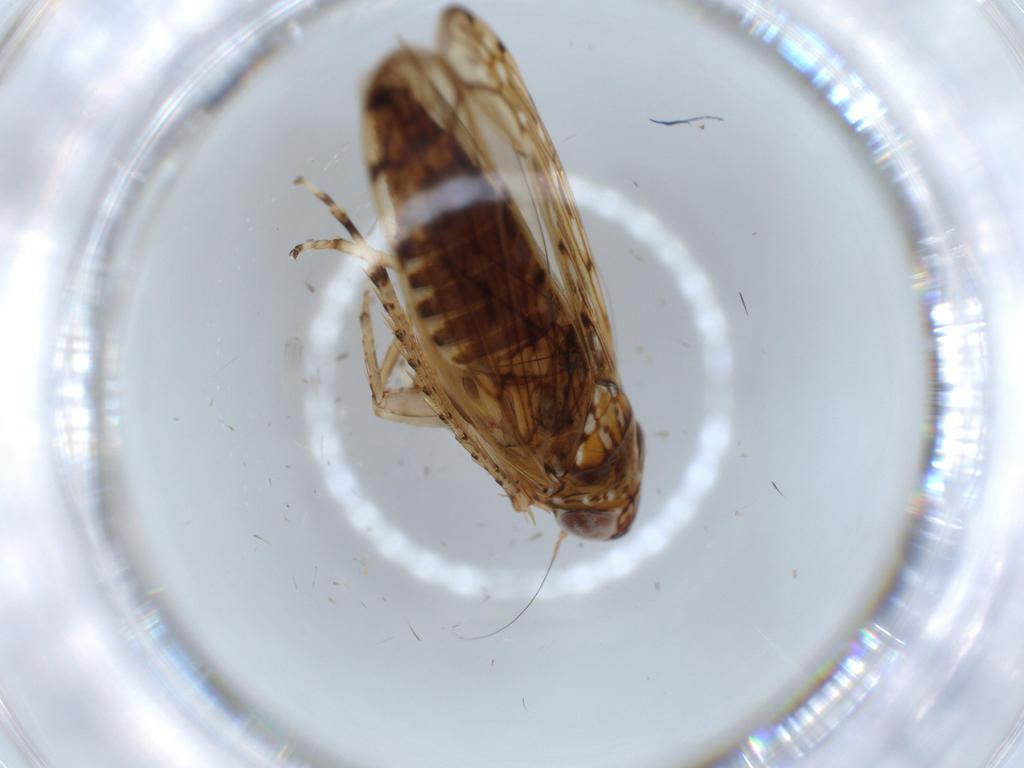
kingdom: Animalia
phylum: Arthropoda
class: Insecta
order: Hemiptera
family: Cicadellidae
